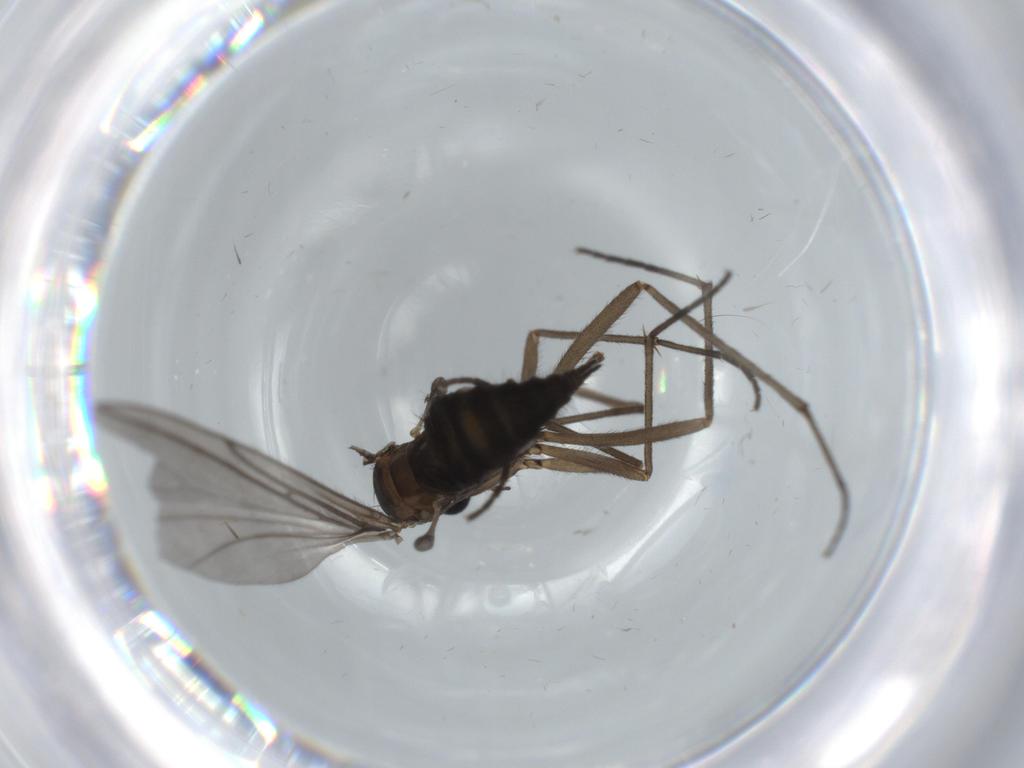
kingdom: Animalia
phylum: Arthropoda
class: Insecta
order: Diptera
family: Sciaridae
